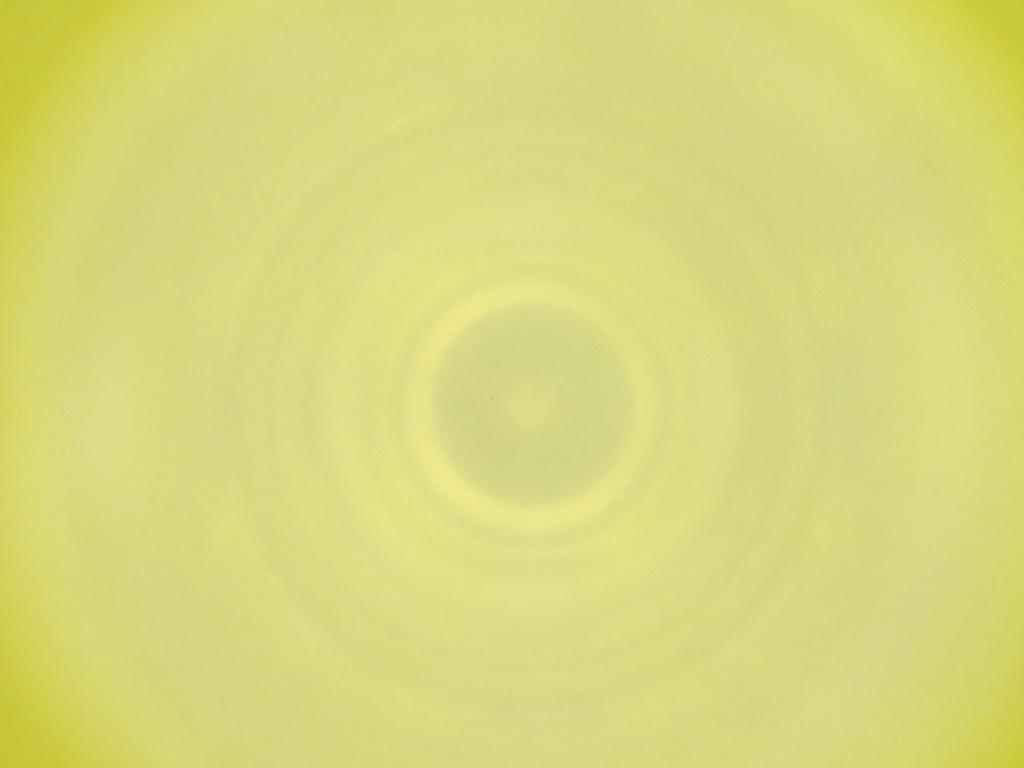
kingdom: Animalia
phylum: Arthropoda
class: Insecta
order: Diptera
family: Cecidomyiidae
